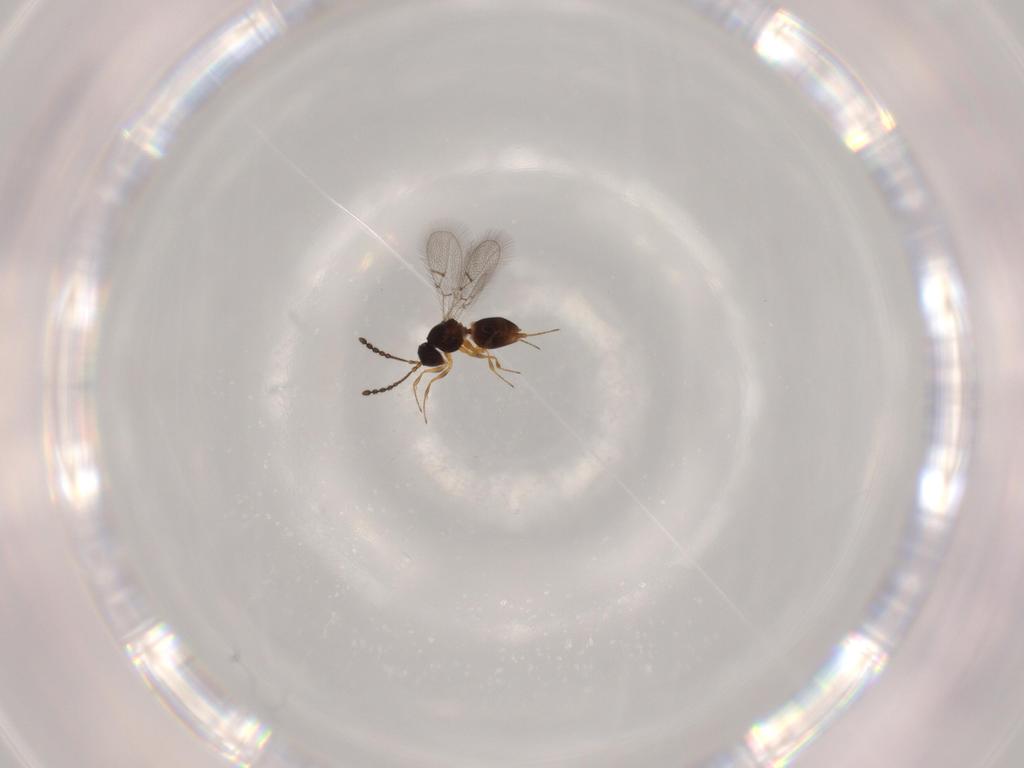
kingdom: Animalia
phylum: Arthropoda
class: Insecta
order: Hymenoptera
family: Figitidae
